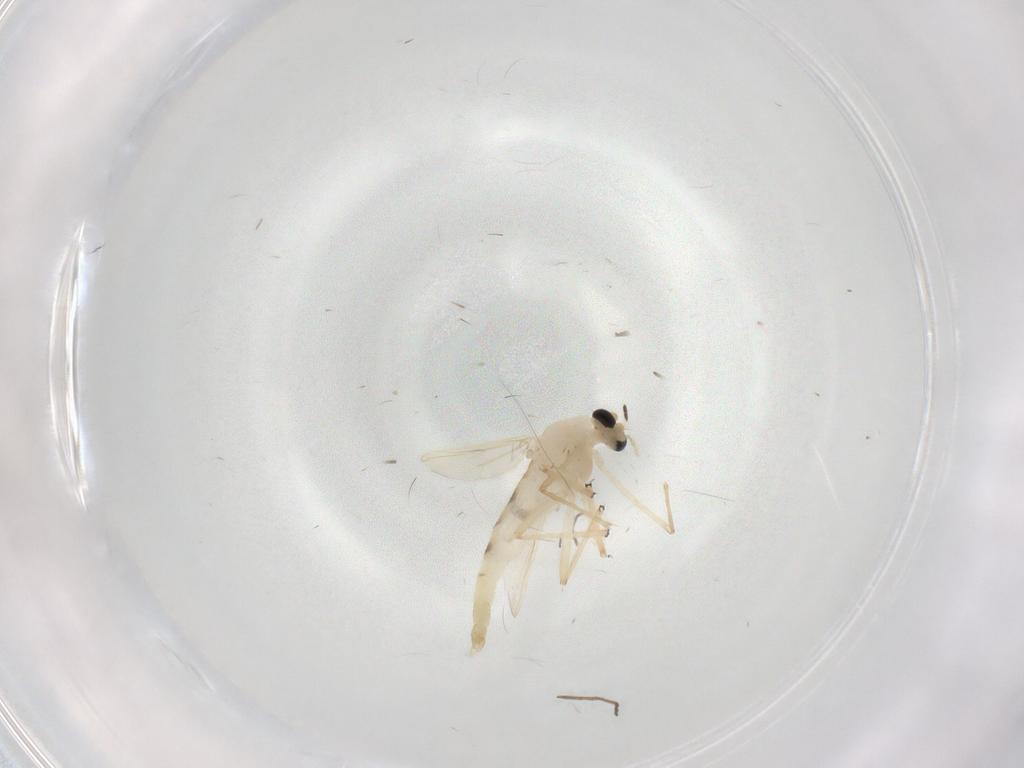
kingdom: Animalia
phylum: Arthropoda
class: Insecta
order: Diptera
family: Chironomidae
